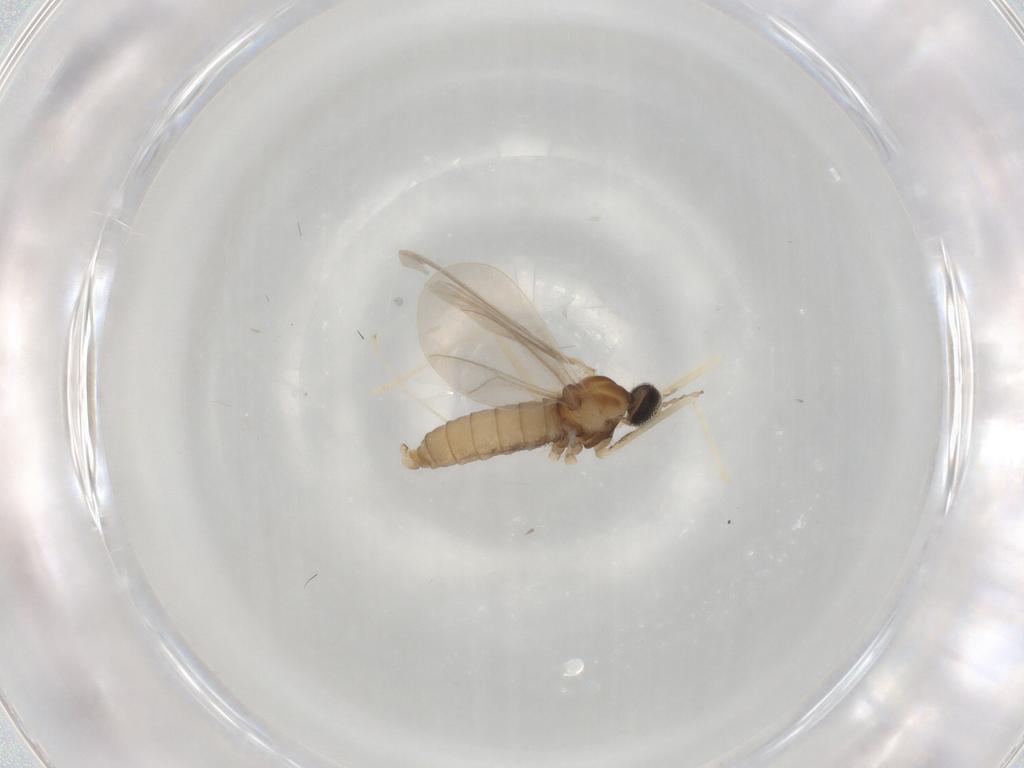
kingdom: Animalia
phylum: Arthropoda
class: Insecta
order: Diptera
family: Cecidomyiidae
